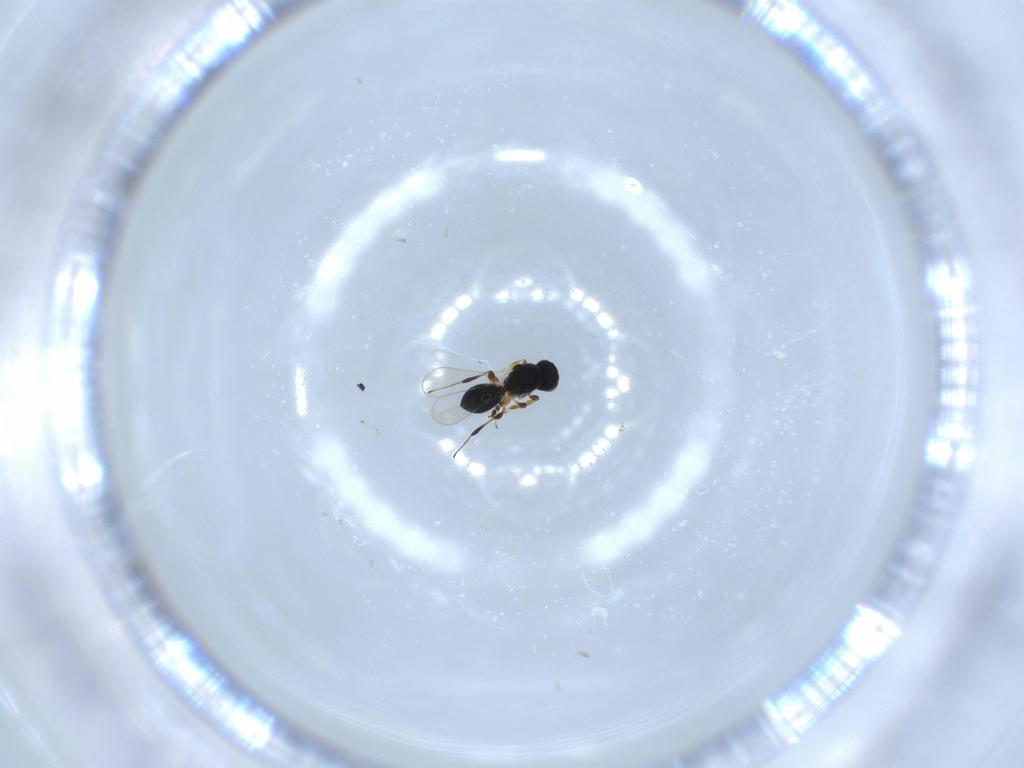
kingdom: Animalia
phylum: Arthropoda
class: Insecta
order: Hymenoptera
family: Platygastridae
